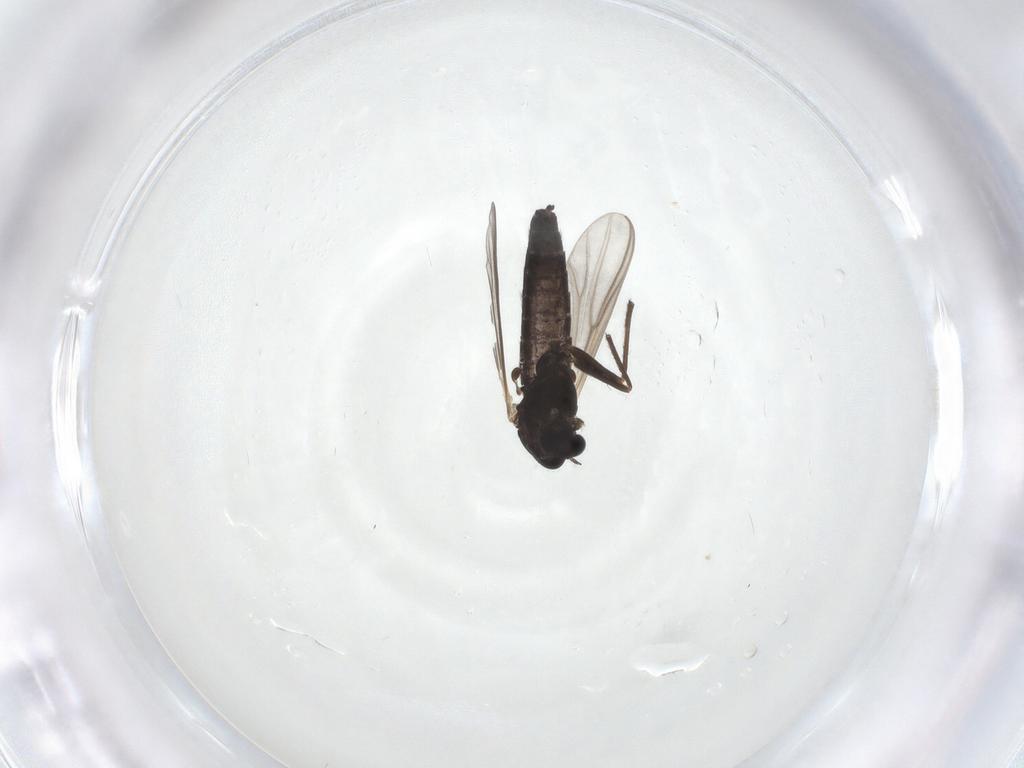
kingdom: Animalia
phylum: Arthropoda
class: Insecta
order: Diptera
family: Chironomidae
